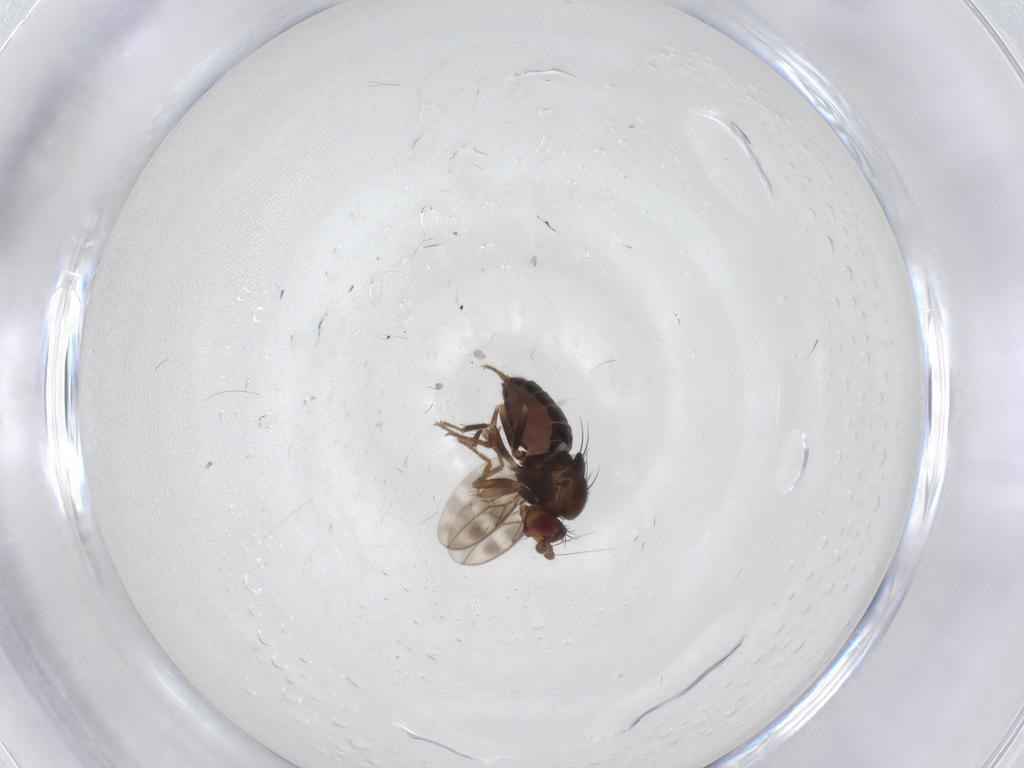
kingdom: Animalia
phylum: Arthropoda
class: Insecta
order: Diptera
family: Sphaeroceridae
